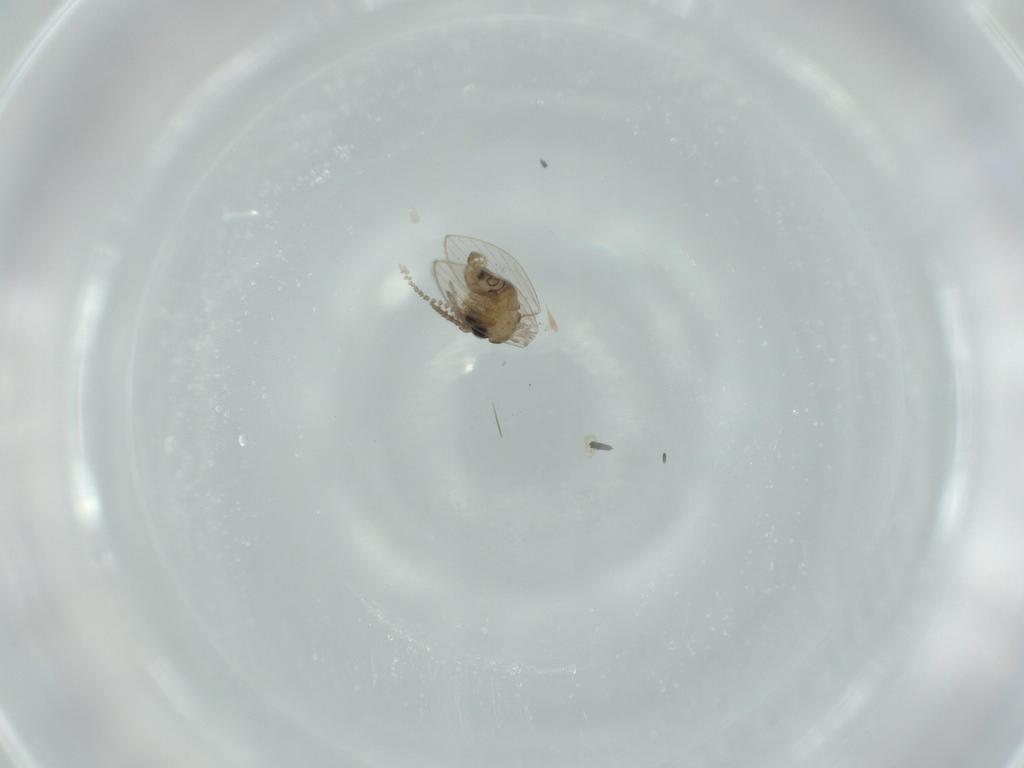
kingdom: Animalia
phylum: Arthropoda
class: Insecta
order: Diptera
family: Psychodidae
